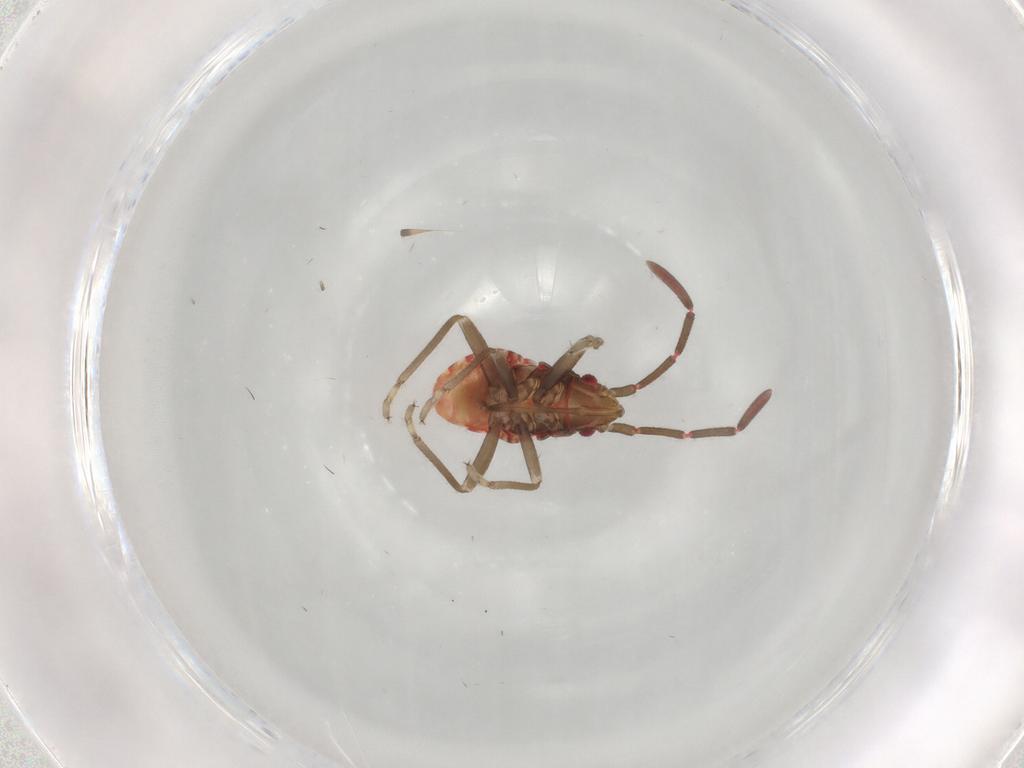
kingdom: Animalia
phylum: Arthropoda
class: Insecta
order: Hemiptera
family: Rhyparochromidae
